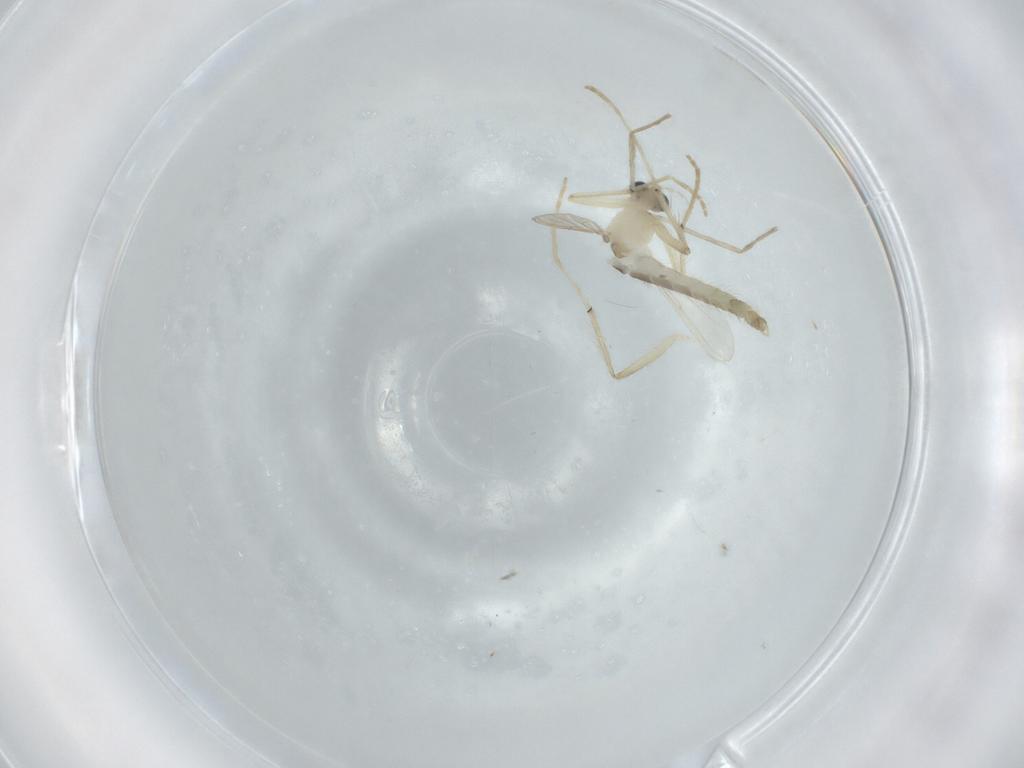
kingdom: Animalia
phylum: Arthropoda
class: Insecta
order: Diptera
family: Chironomidae
